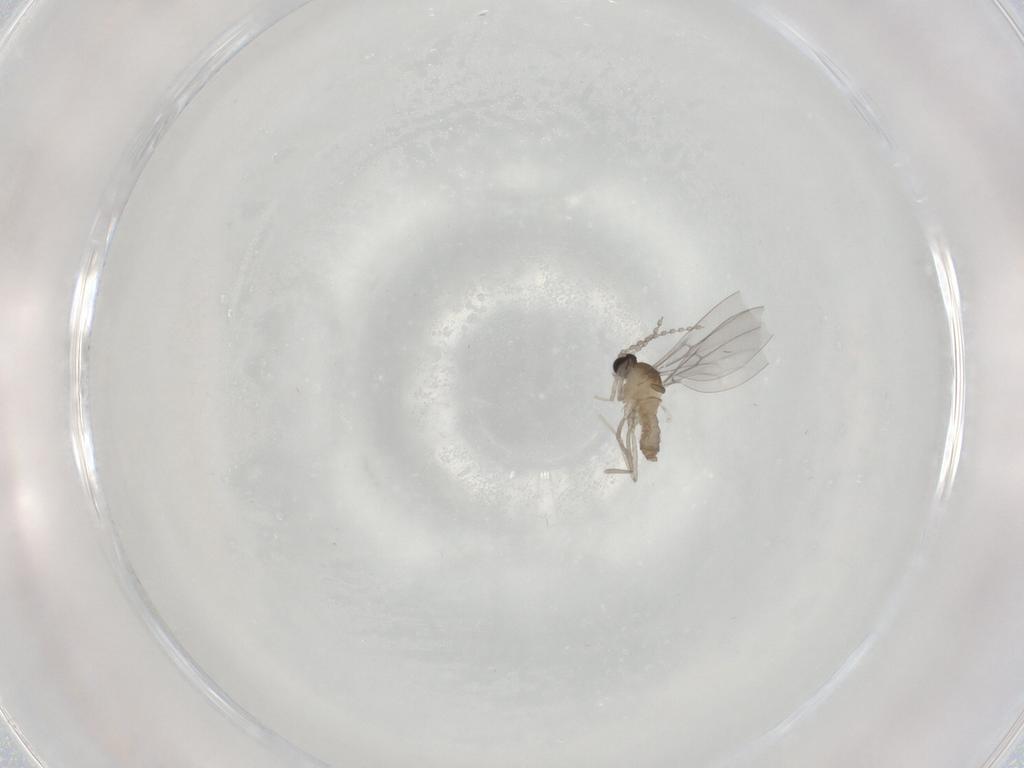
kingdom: Animalia
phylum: Arthropoda
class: Insecta
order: Diptera
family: Cecidomyiidae
